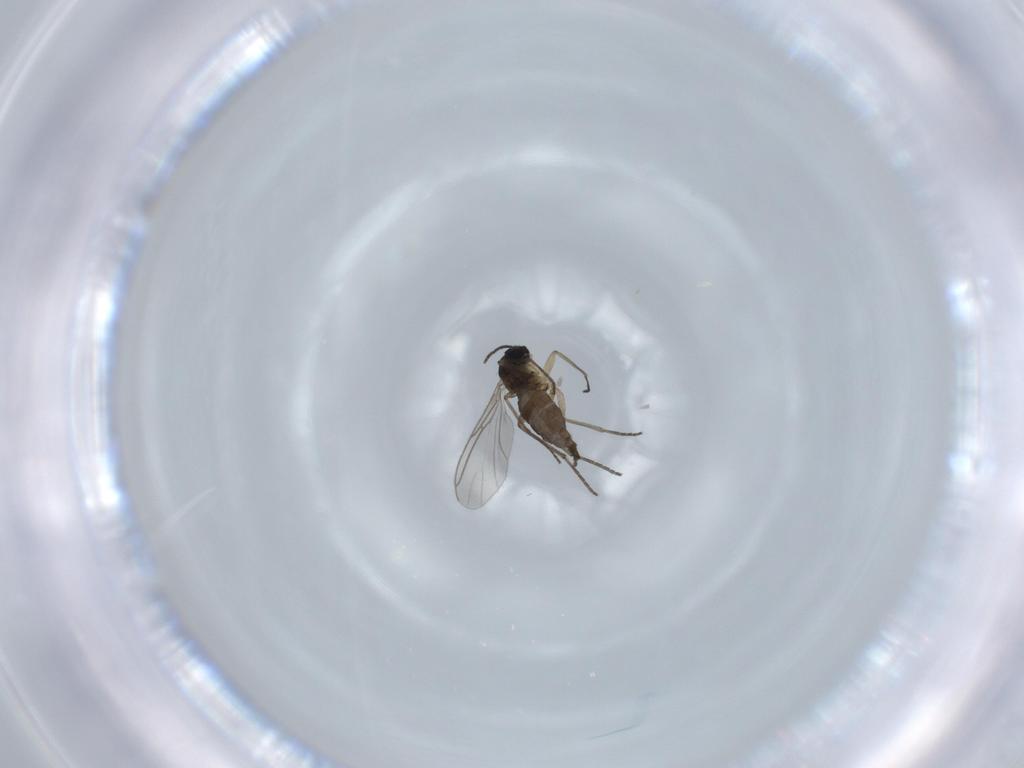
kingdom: Animalia
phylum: Arthropoda
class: Insecta
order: Diptera
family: Sciaridae
